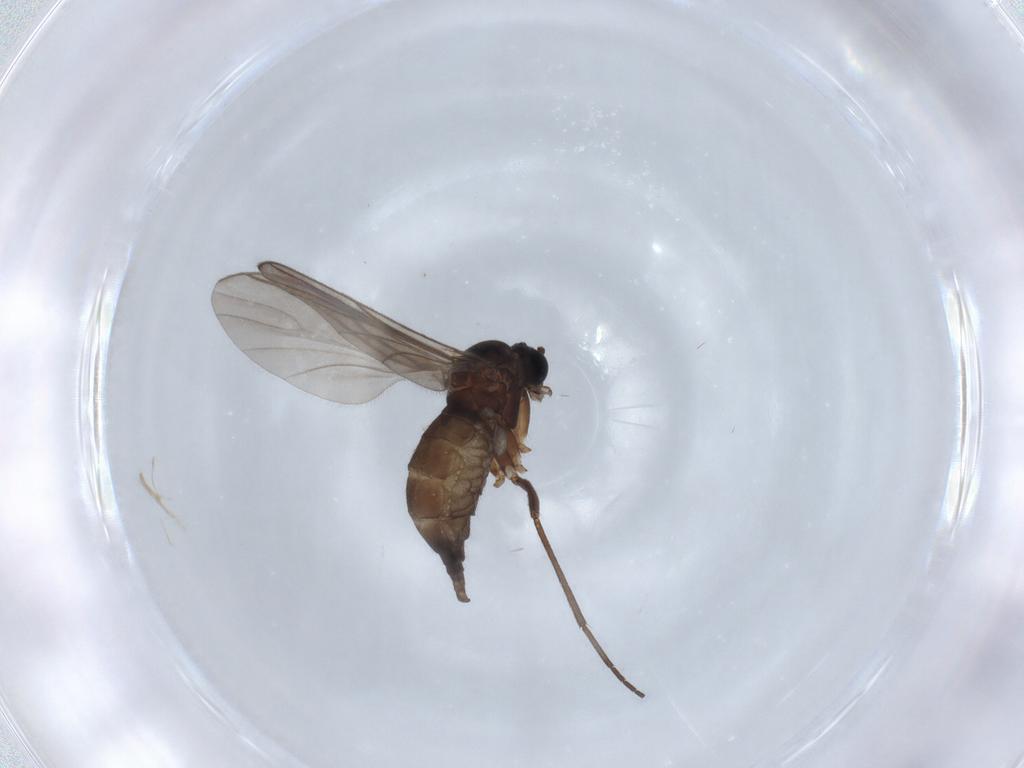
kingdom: Animalia
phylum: Arthropoda
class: Insecta
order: Diptera
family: Sciaridae
